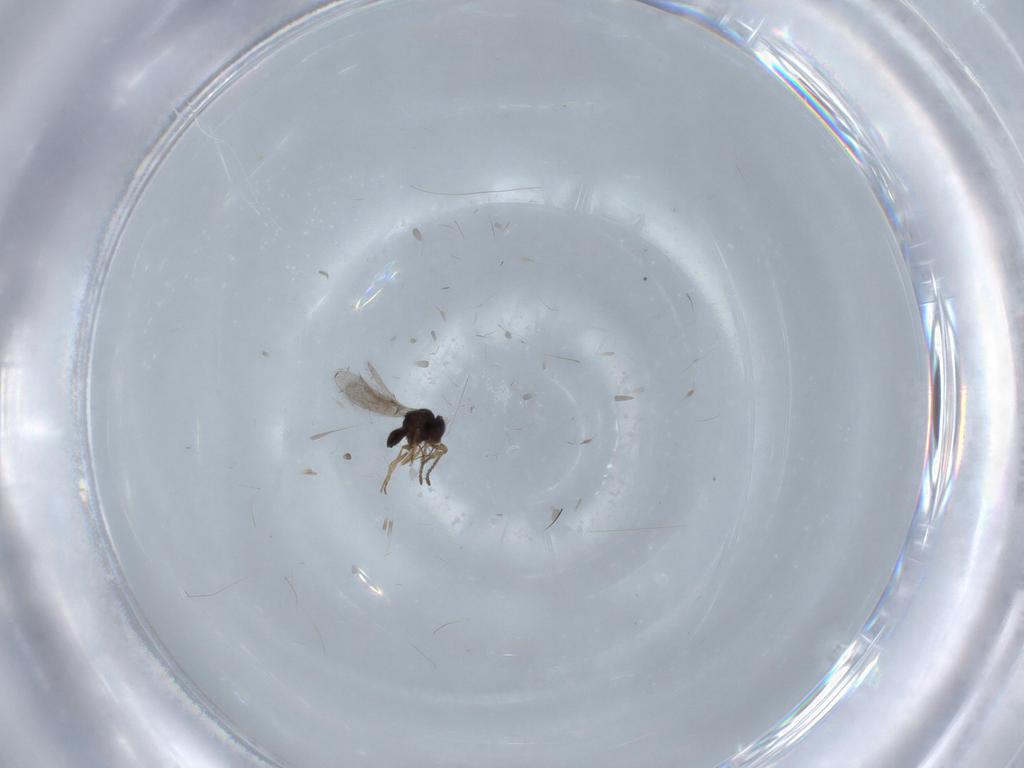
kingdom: Animalia
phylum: Arthropoda
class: Insecta
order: Hymenoptera
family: Scelionidae
